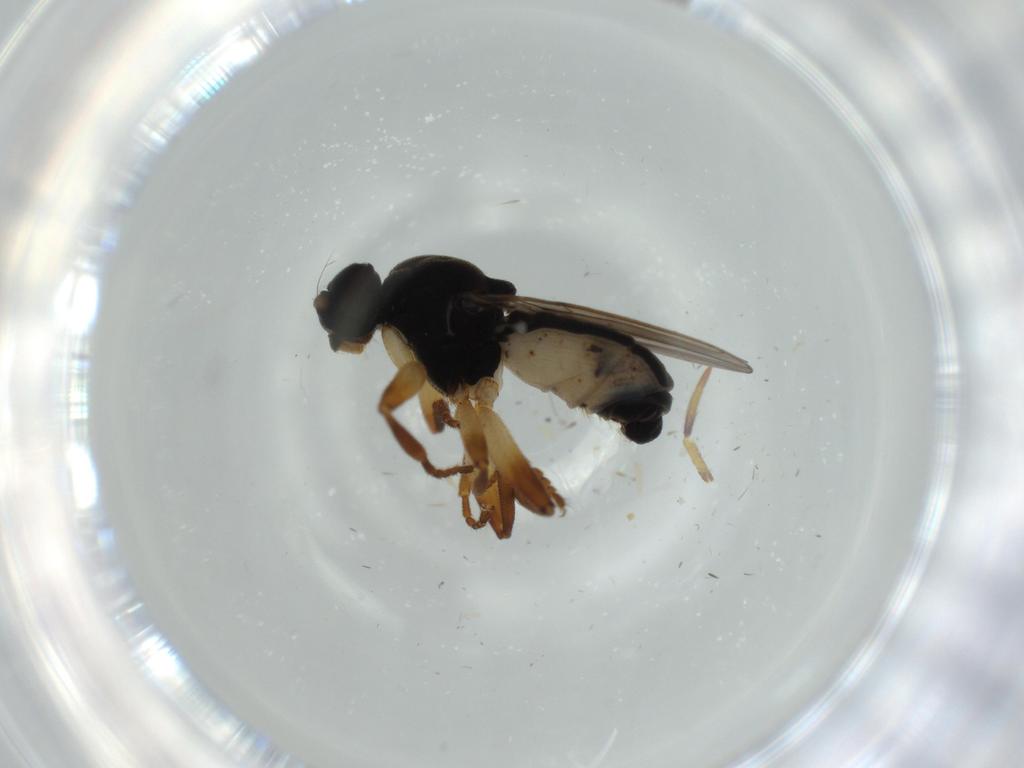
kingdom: Animalia
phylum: Arthropoda
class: Insecta
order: Diptera
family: Sphaeroceridae
